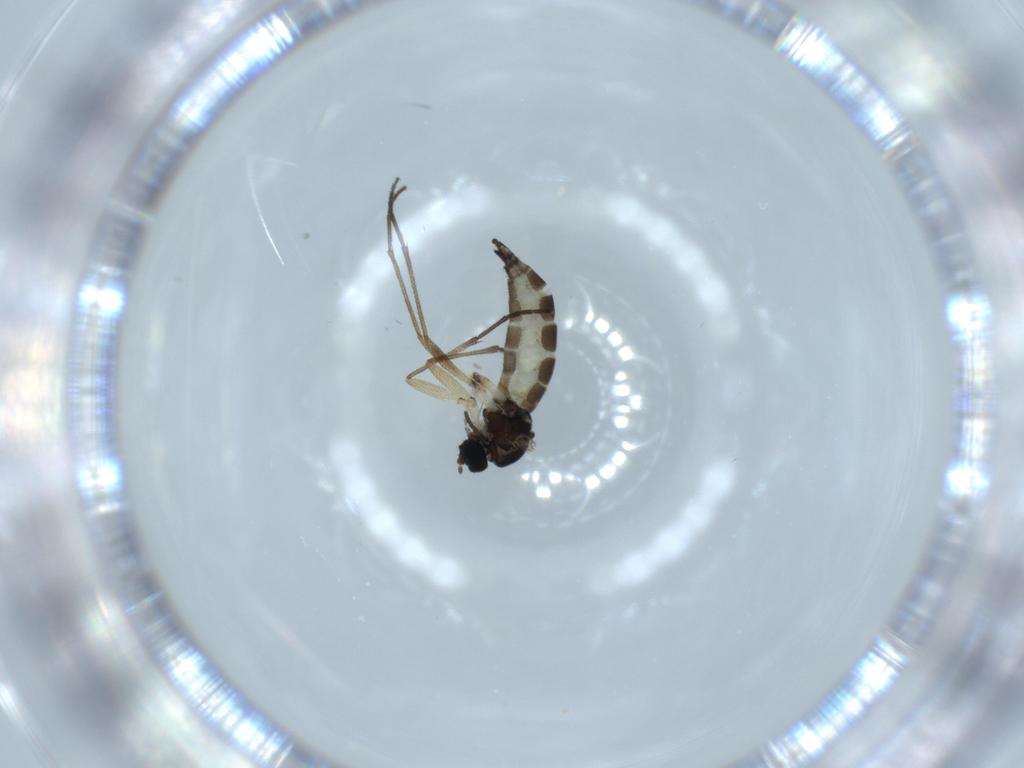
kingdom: Animalia
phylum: Arthropoda
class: Insecta
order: Diptera
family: Sciaridae
